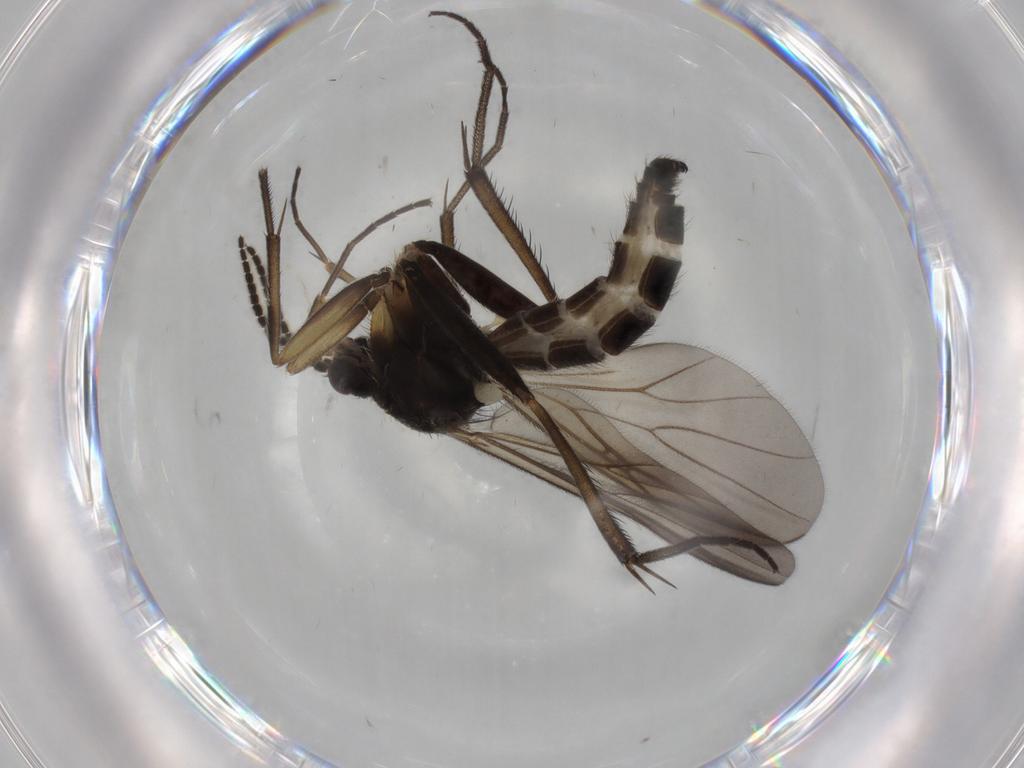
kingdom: Animalia
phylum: Arthropoda
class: Insecta
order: Diptera
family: Mycetophilidae
